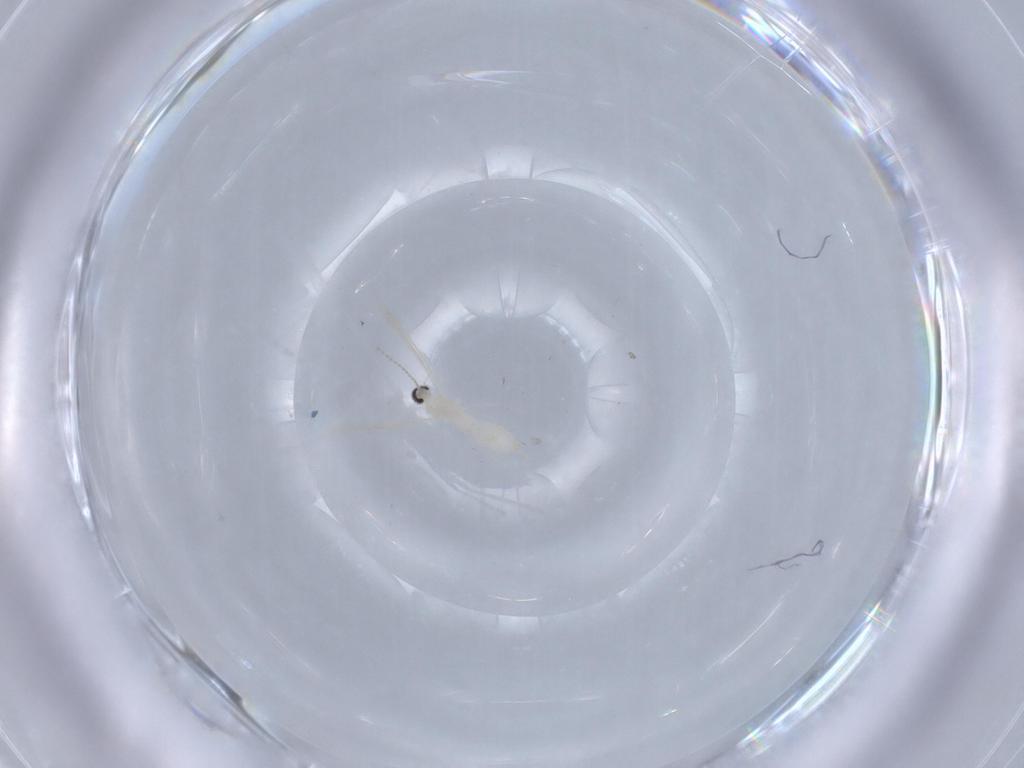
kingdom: Animalia
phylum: Arthropoda
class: Insecta
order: Diptera
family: Cecidomyiidae
